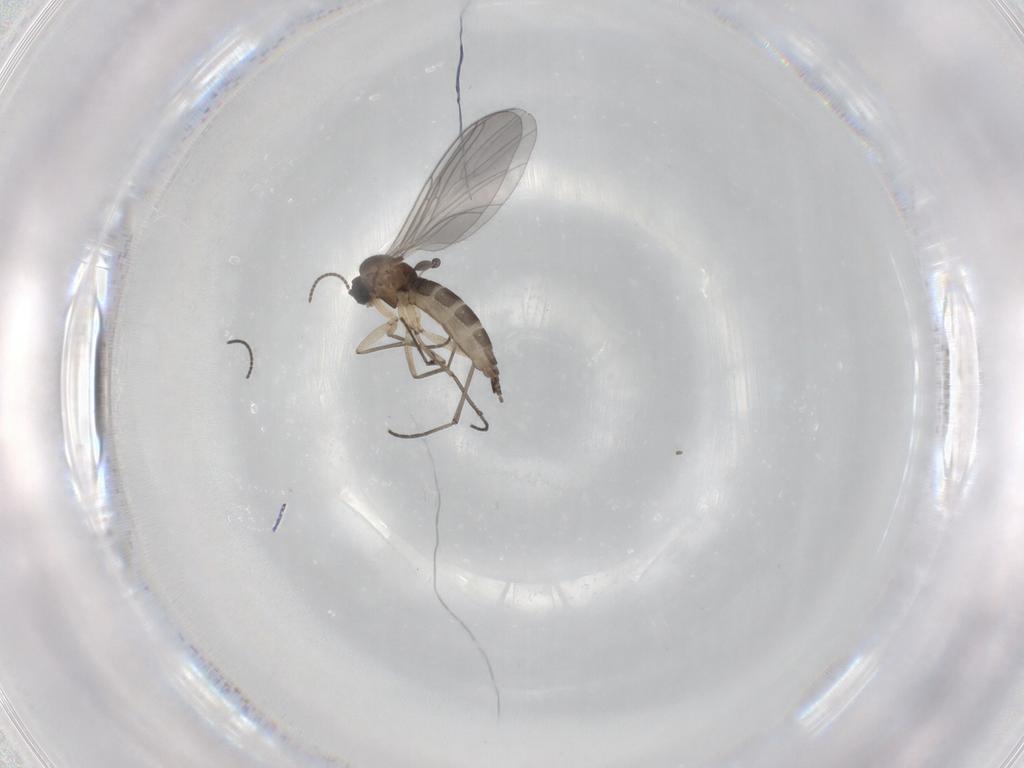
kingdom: Animalia
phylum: Arthropoda
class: Insecta
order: Diptera
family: Sciaridae
